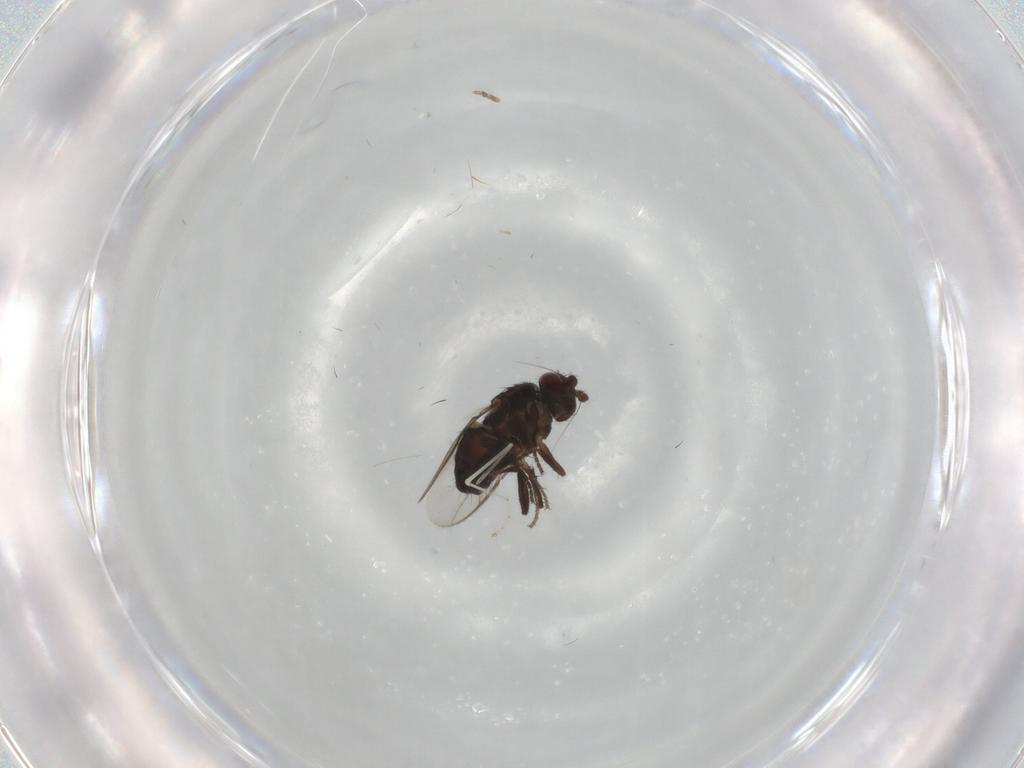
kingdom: Animalia
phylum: Arthropoda
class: Insecta
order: Diptera
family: Sphaeroceridae
